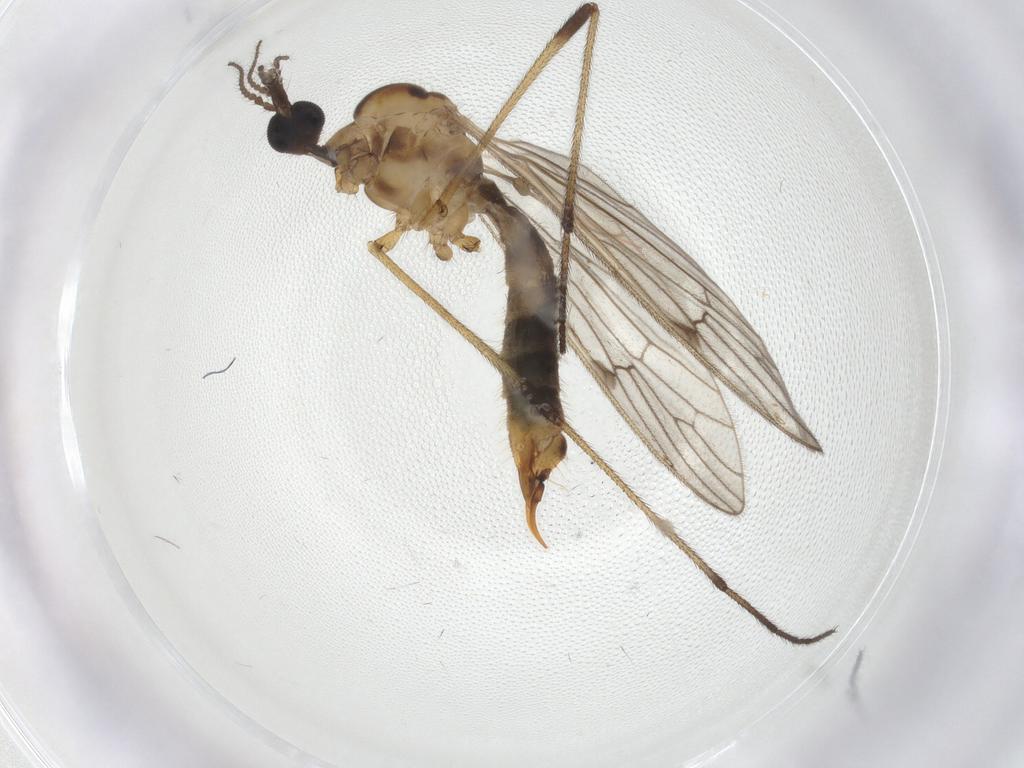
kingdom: Animalia
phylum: Arthropoda
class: Insecta
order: Diptera
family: Limoniidae
